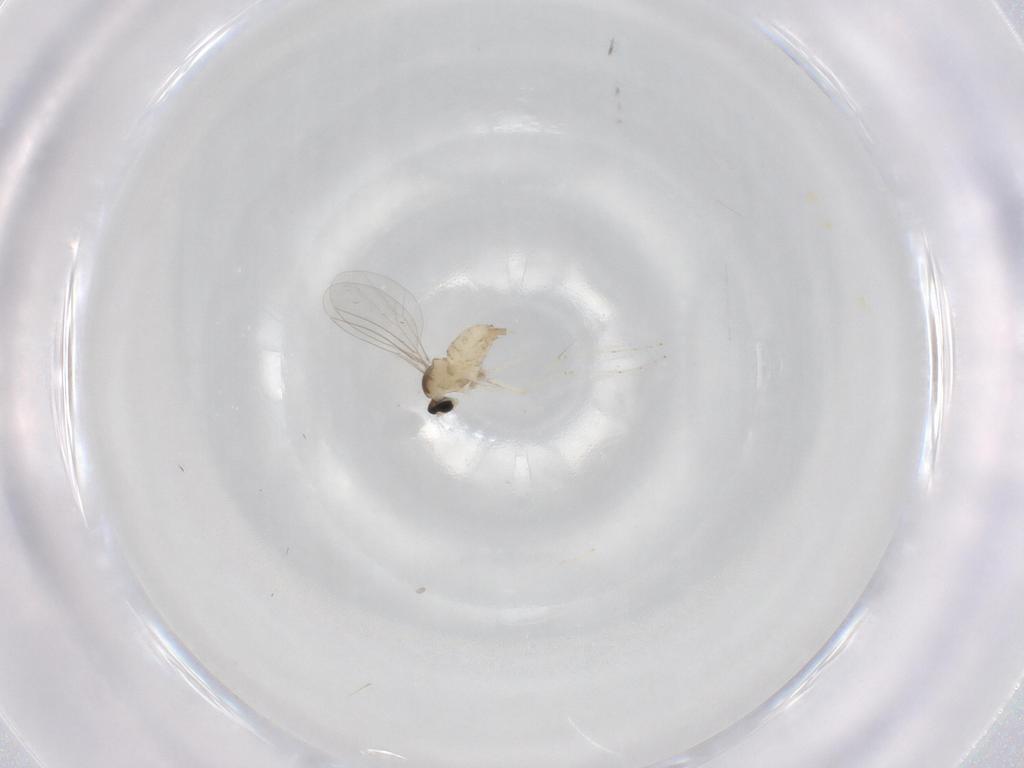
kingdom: Animalia
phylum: Arthropoda
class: Insecta
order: Diptera
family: Cecidomyiidae
